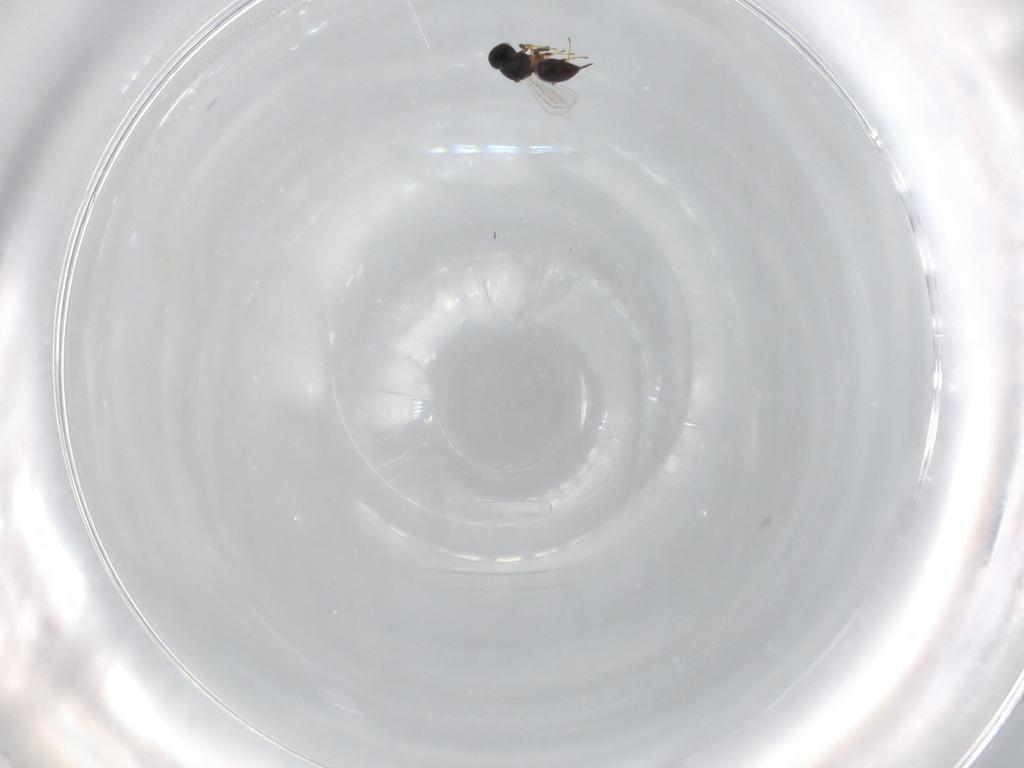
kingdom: Animalia
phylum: Arthropoda
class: Insecta
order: Hymenoptera
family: Platygastridae
